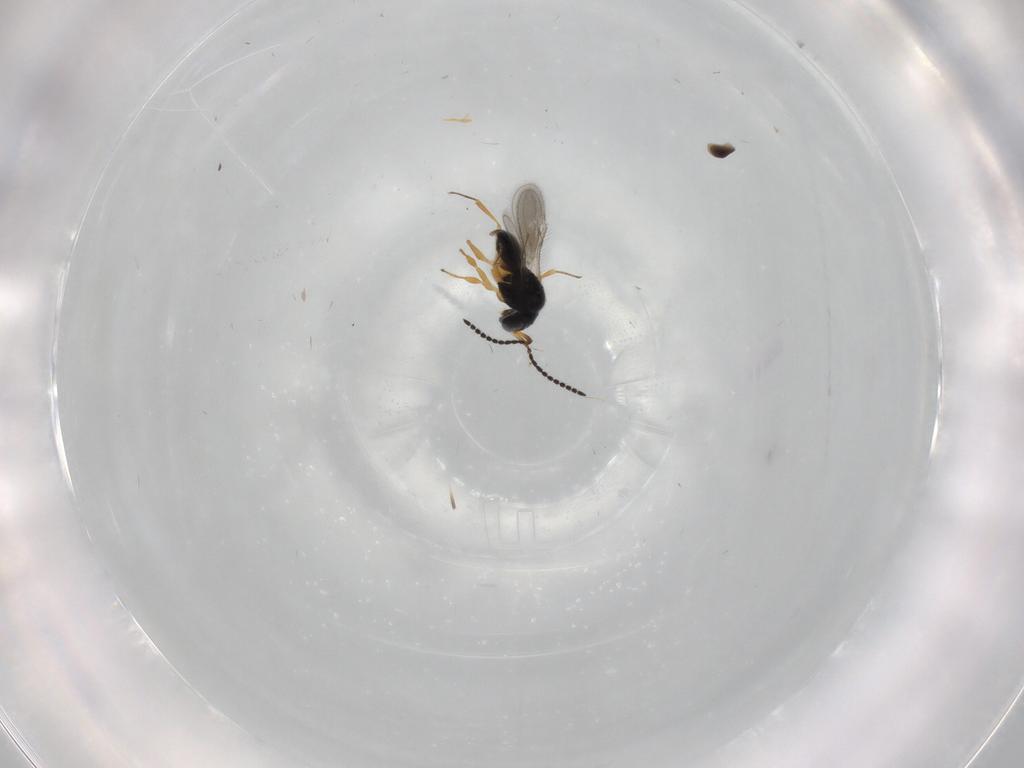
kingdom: Animalia
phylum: Arthropoda
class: Insecta
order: Hymenoptera
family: Scelionidae
